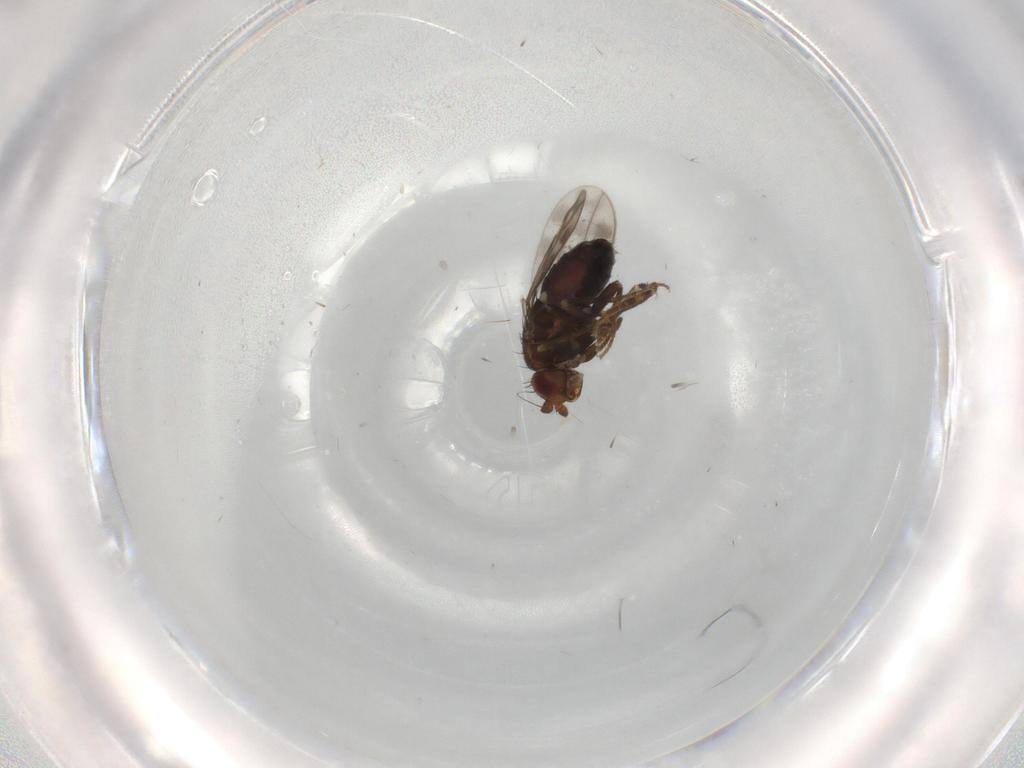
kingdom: Animalia
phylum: Arthropoda
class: Insecta
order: Diptera
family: Sphaeroceridae
